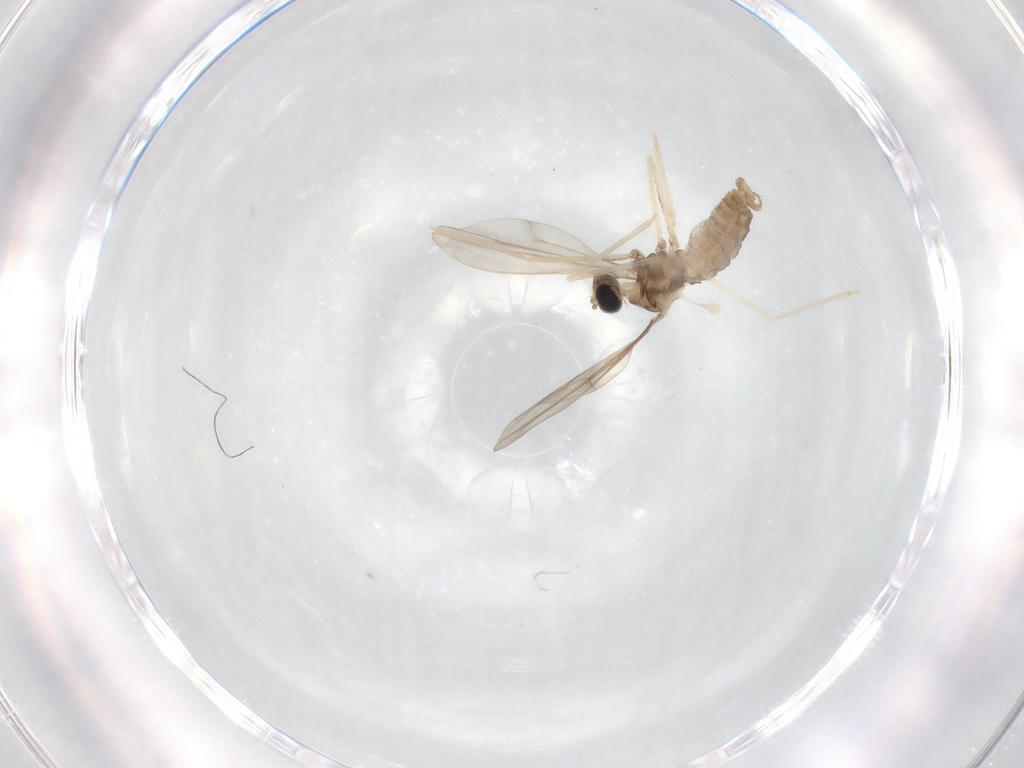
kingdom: Animalia
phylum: Arthropoda
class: Insecta
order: Diptera
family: Cecidomyiidae
